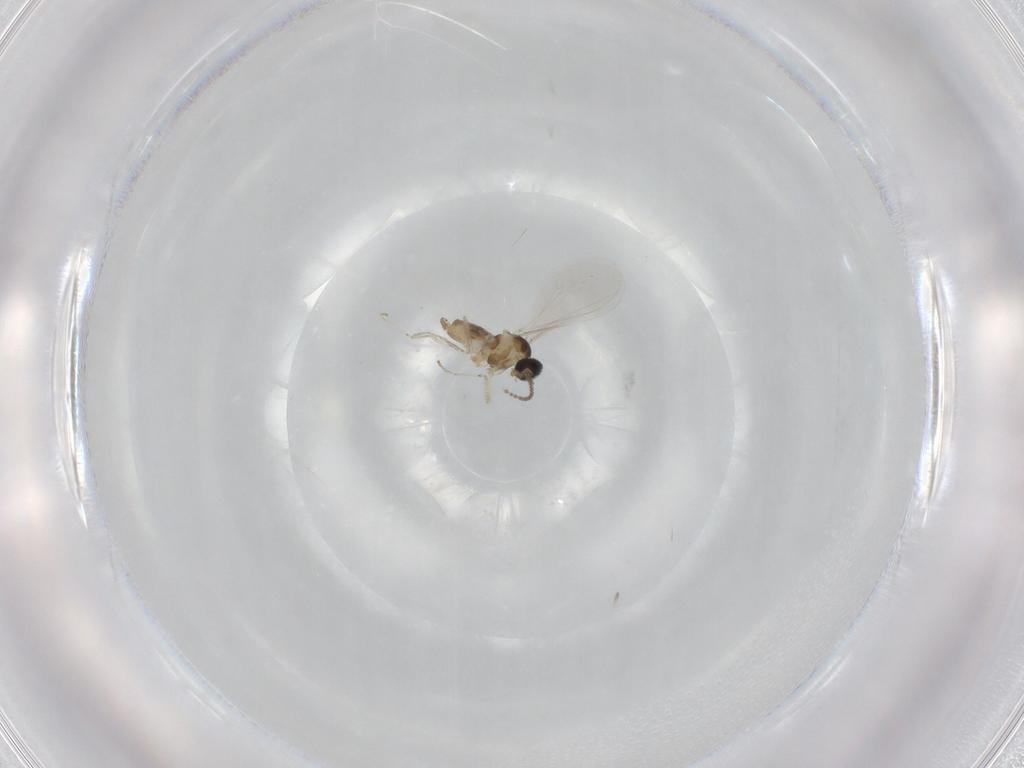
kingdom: Animalia
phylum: Arthropoda
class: Insecta
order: Diptera
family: Cecidomyiidae
